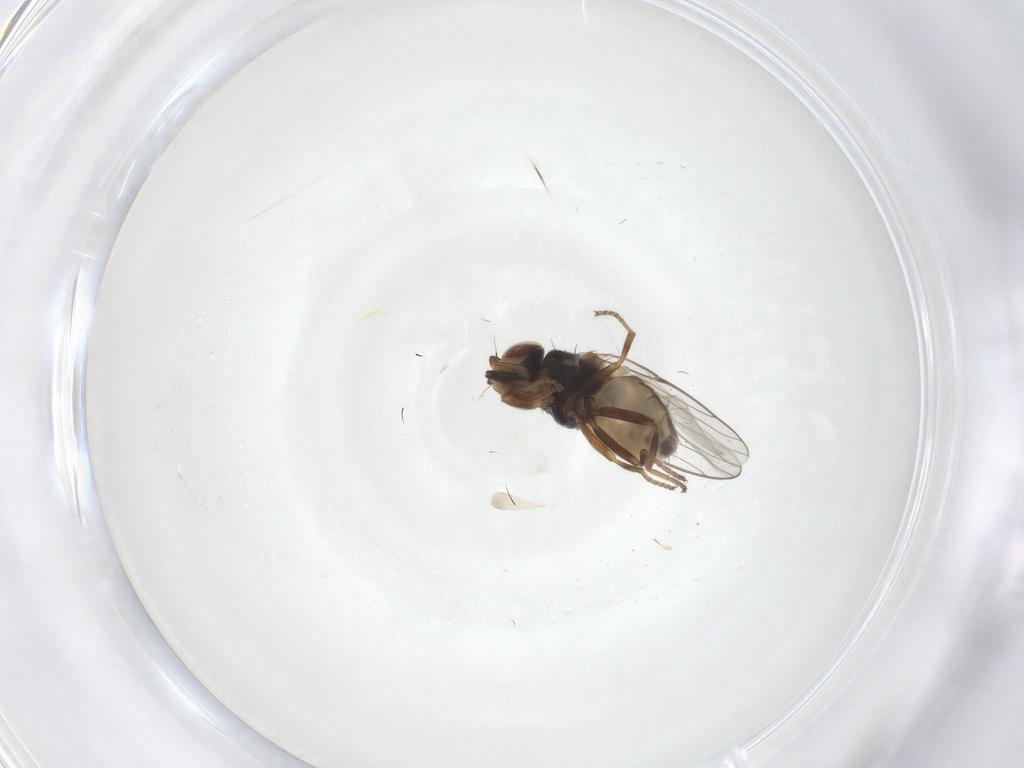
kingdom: Animalia
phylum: Arthropoda
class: Insecta
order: Diptera
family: Chloropidae
